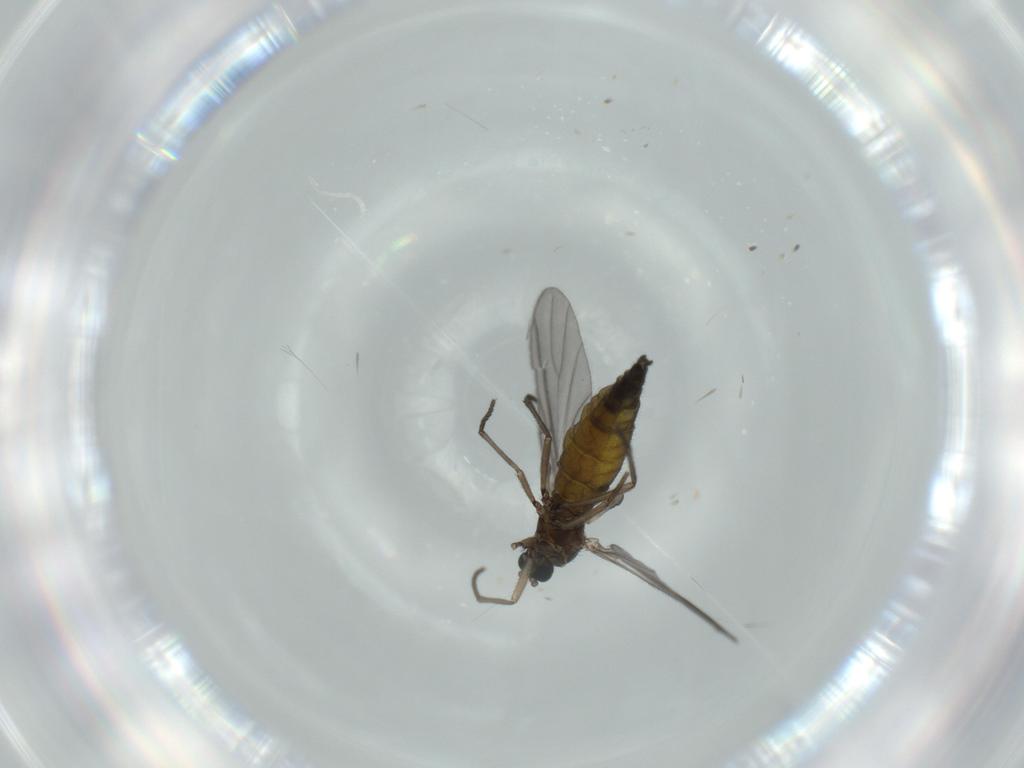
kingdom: Animalia
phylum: Arthropoda
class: Insecta
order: Diptera
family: Sciaridae
